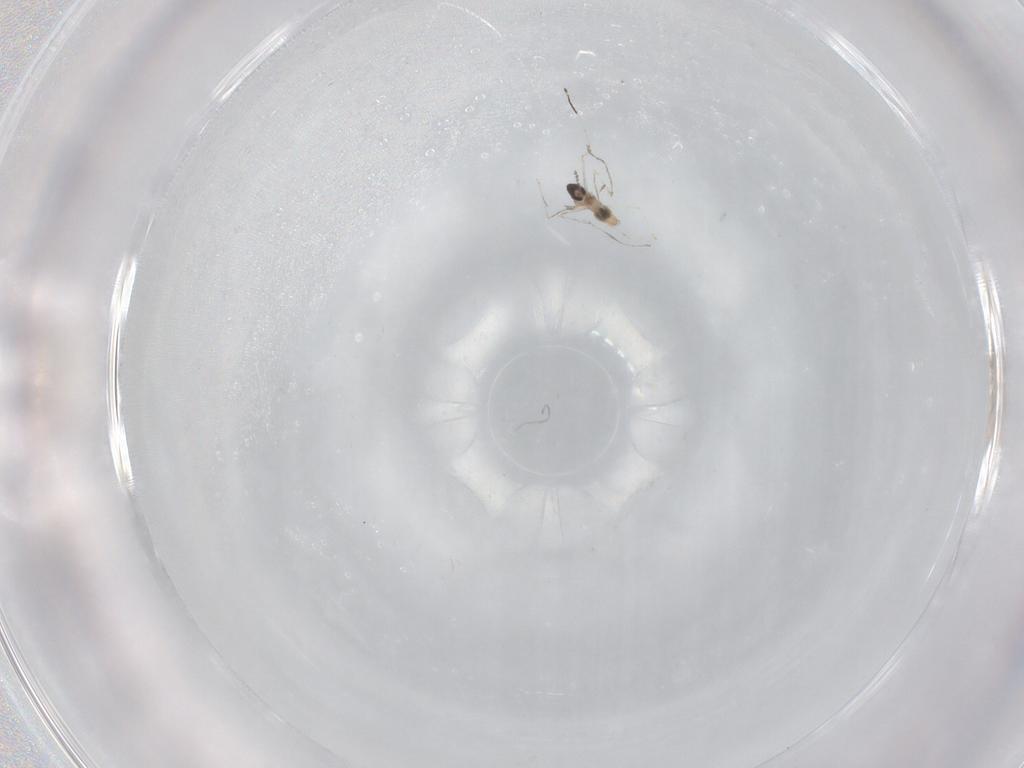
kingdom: Animalia
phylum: Arthropoda
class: Insecta
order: Diptera
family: Cecidomyiidae
